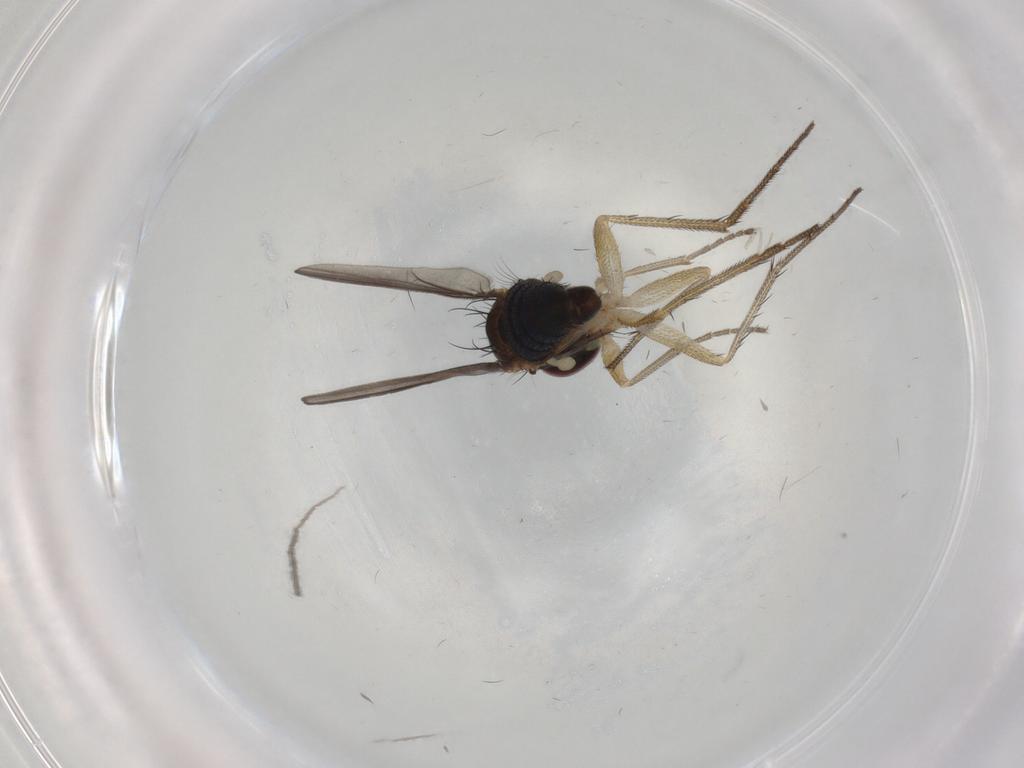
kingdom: Animalia
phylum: Arthropoda
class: Insecta
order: Diptera
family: Dolichopodidae
